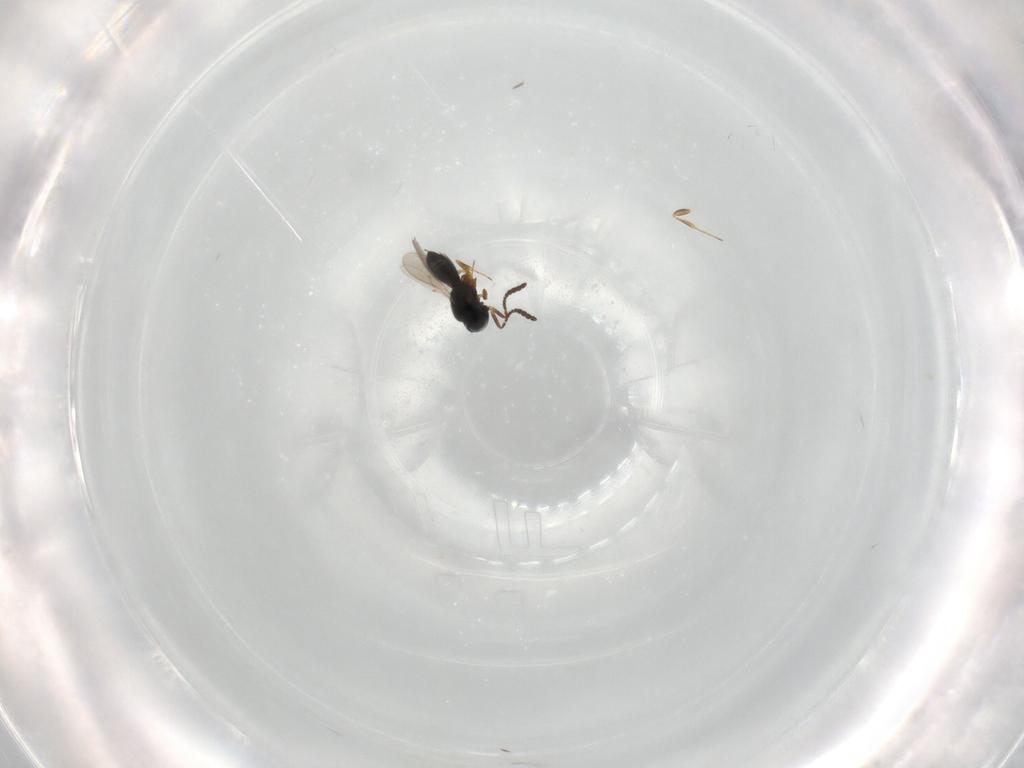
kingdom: Animalia
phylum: Arthropoda
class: Insecta
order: Hymenoptera
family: Scelionidae
